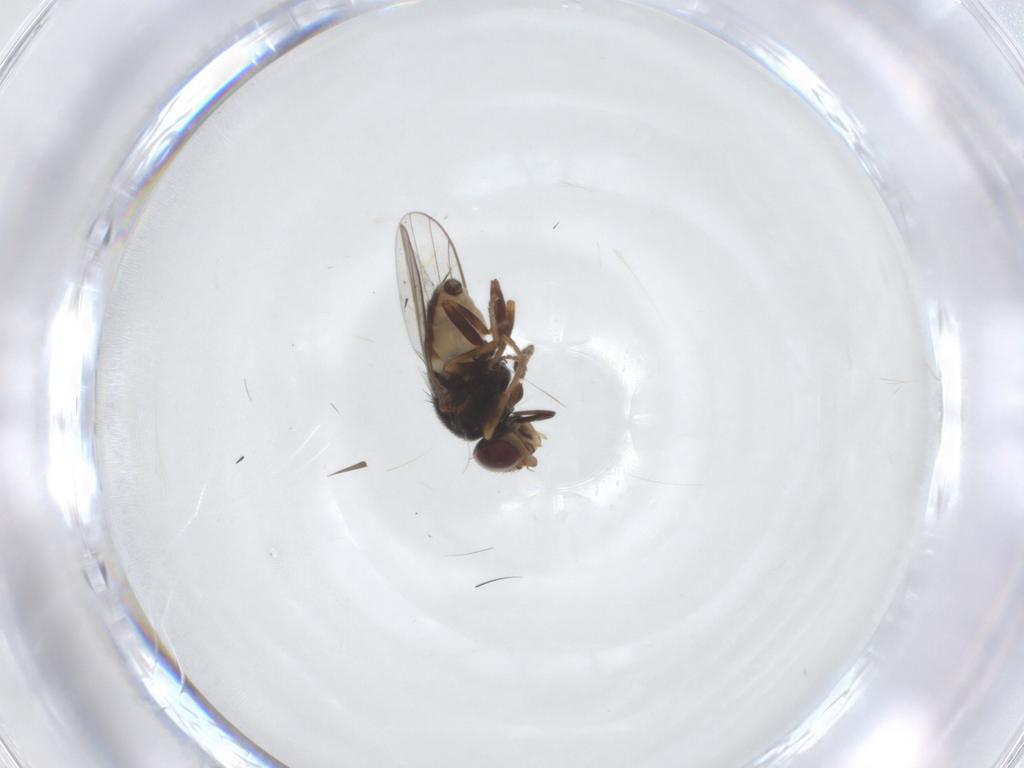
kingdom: Animalia
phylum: Arthropoda
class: Insecta
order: Diptera
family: Chloropidae
